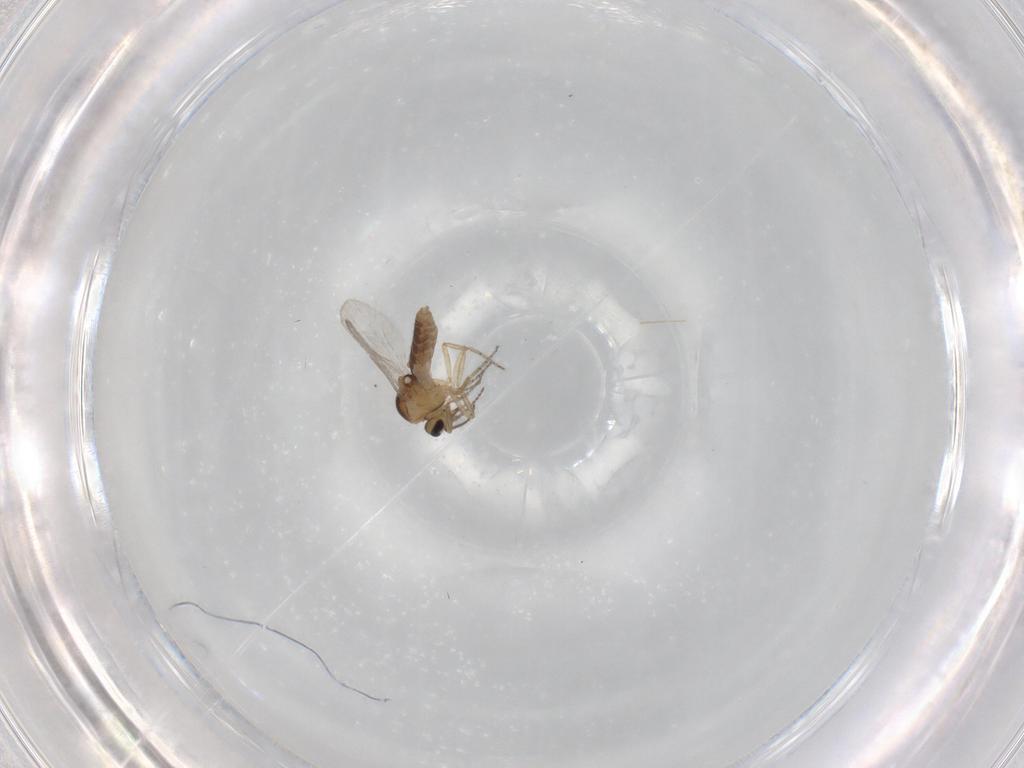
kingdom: Animalia
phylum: Arthropoda
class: Insecta
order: Diptera
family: Ceratopogonidae
